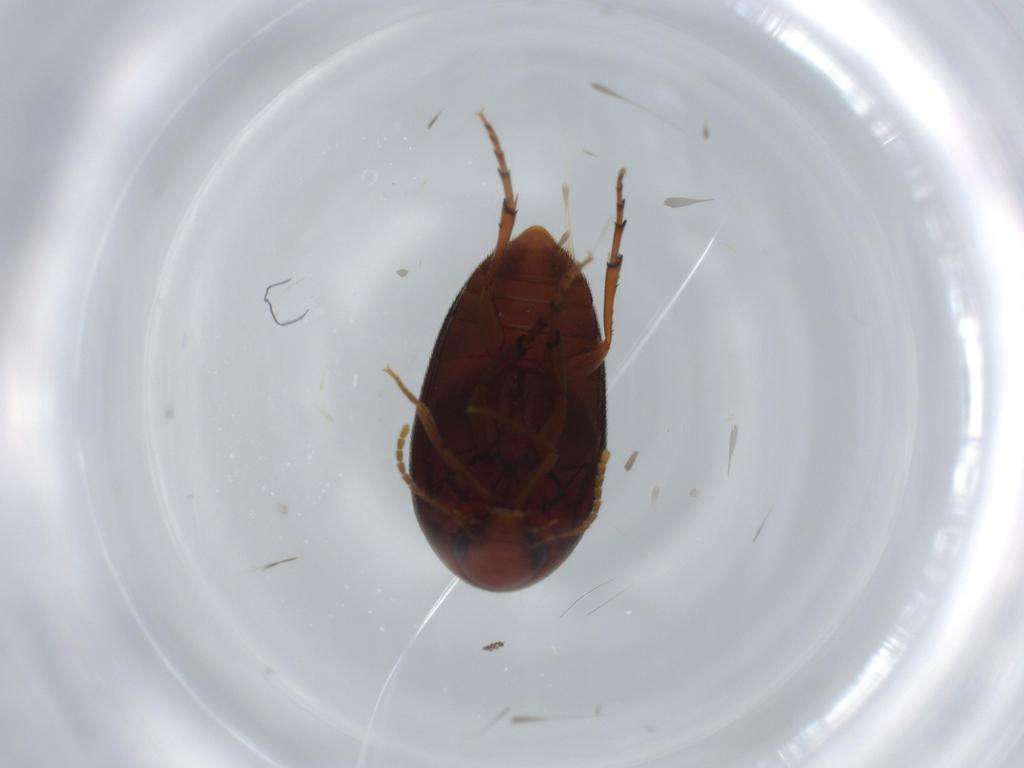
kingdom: Animalia
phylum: Arthropoda
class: Insecta
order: Coleoptera
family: Eucinetidae
